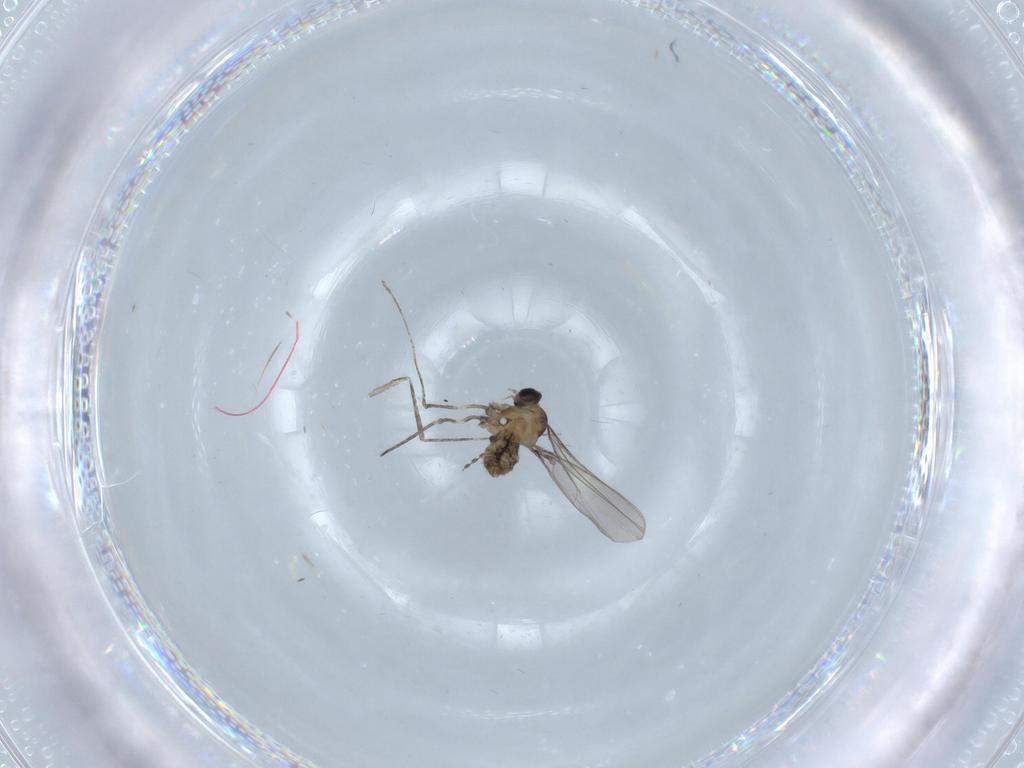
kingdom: Animalia
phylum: Arthropoda
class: Insecta
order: Diptera
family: Cecidomyiidae
